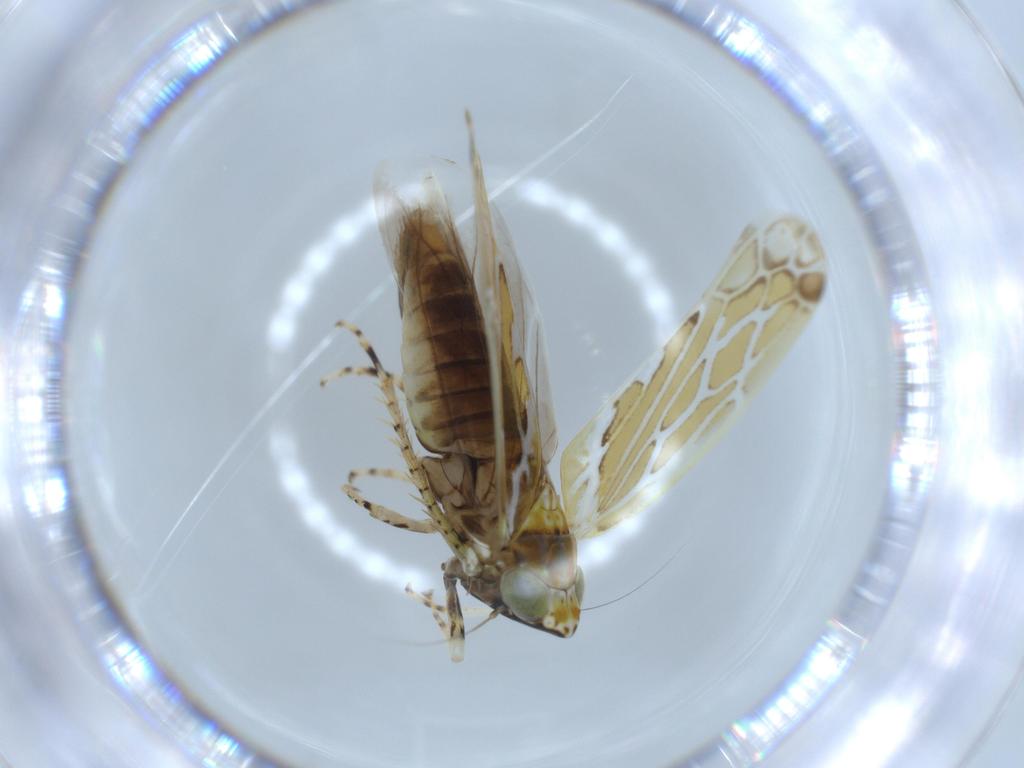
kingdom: Animalia
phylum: Arthropoda
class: Insecta
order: Hemiptera
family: Cicadellidae
